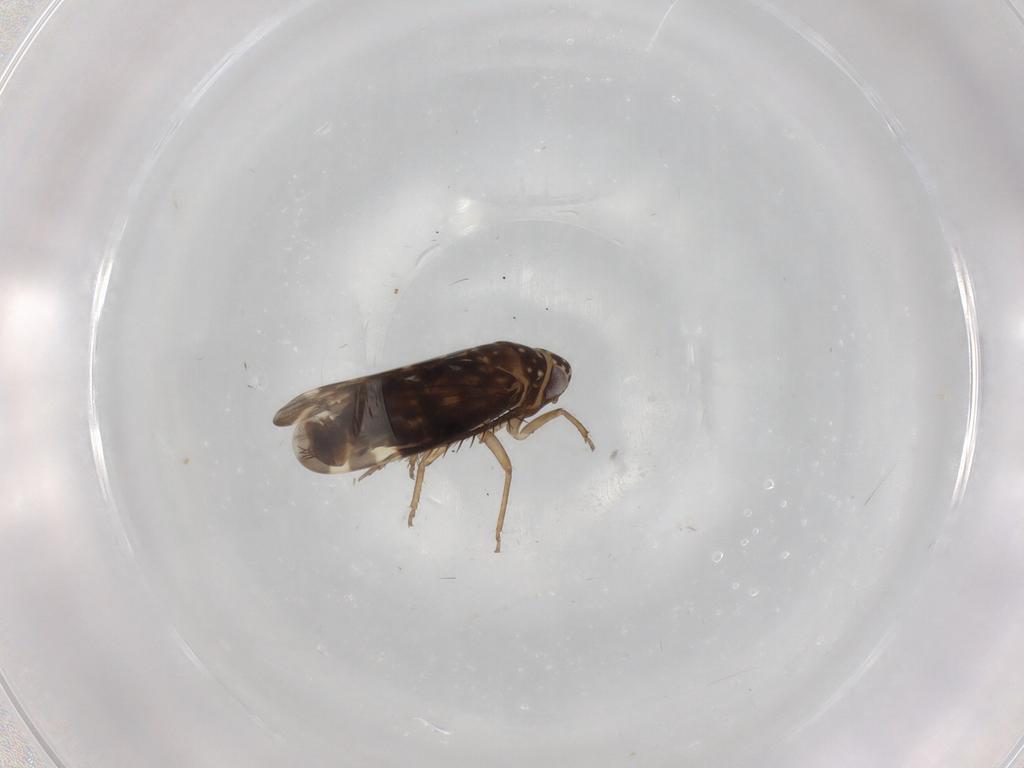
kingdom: Animalia
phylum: Arthropoda
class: Insecta
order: Hemiptera
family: Cicadellidae
